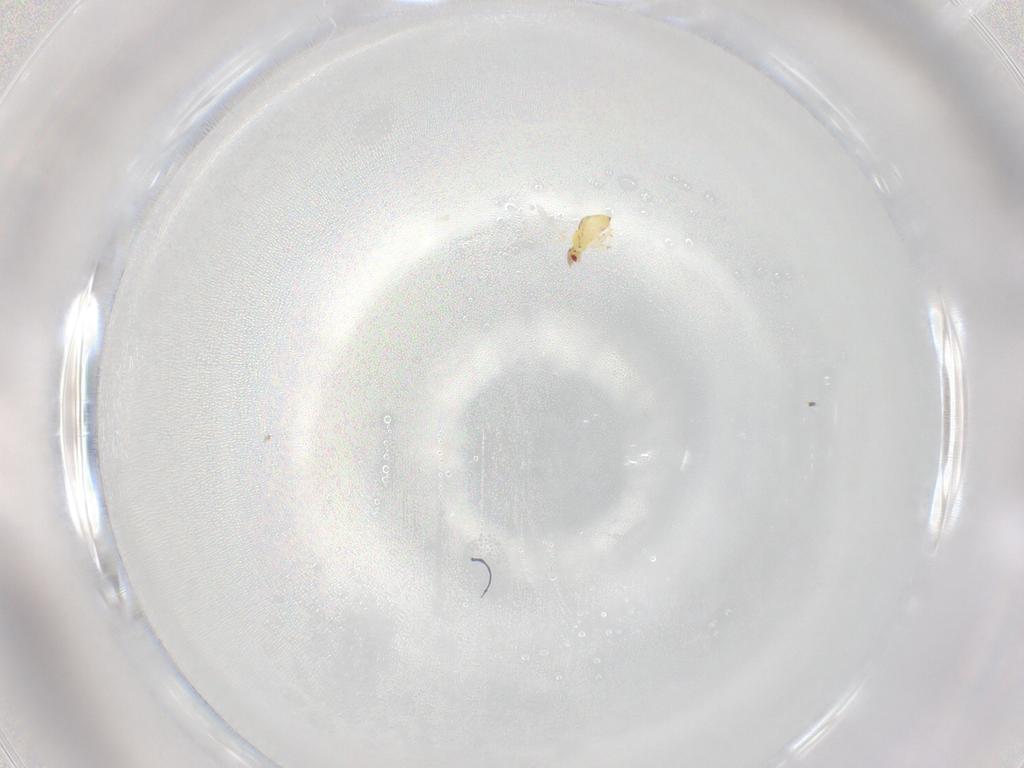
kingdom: Animalia
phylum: Arthropoda
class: Insecta
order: Hymenoptera
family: Trichogrammatidae
